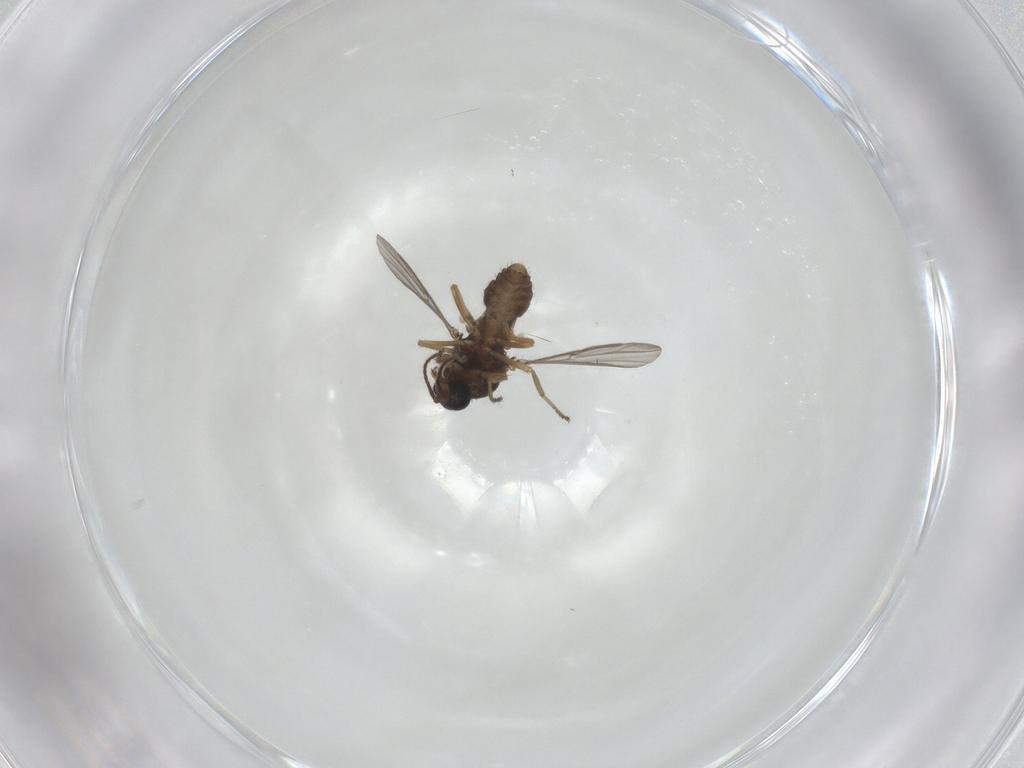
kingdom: Animalia
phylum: Arthropoda
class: Insecta
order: Diptera
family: Ceratopogonidae
